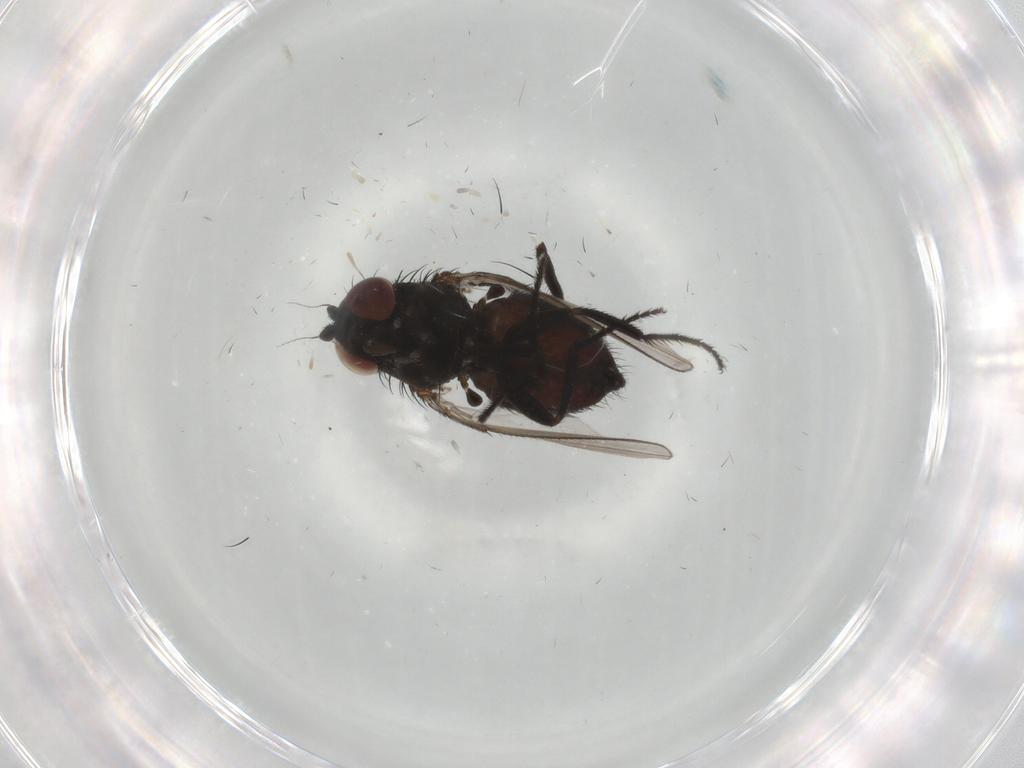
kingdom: Animalia
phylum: Arthropoda
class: Insecta
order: Diptera
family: Milichiidae
